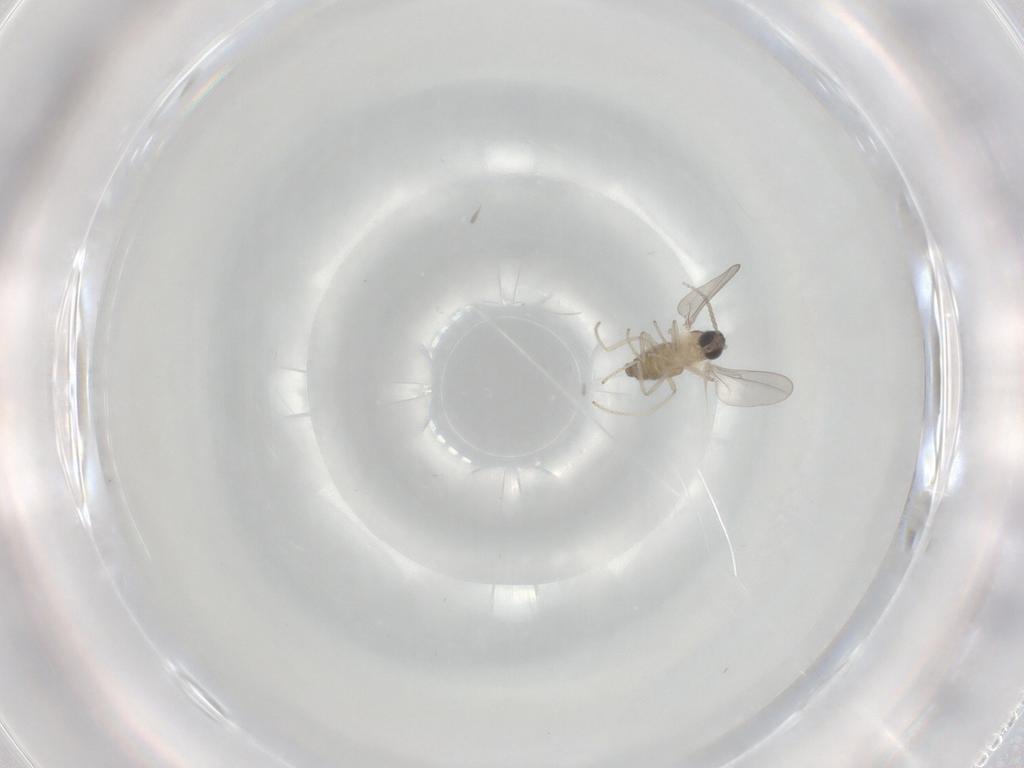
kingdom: Animalia
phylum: Arthropoda
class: Insecta
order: Diptera
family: Cecidomyiidae
